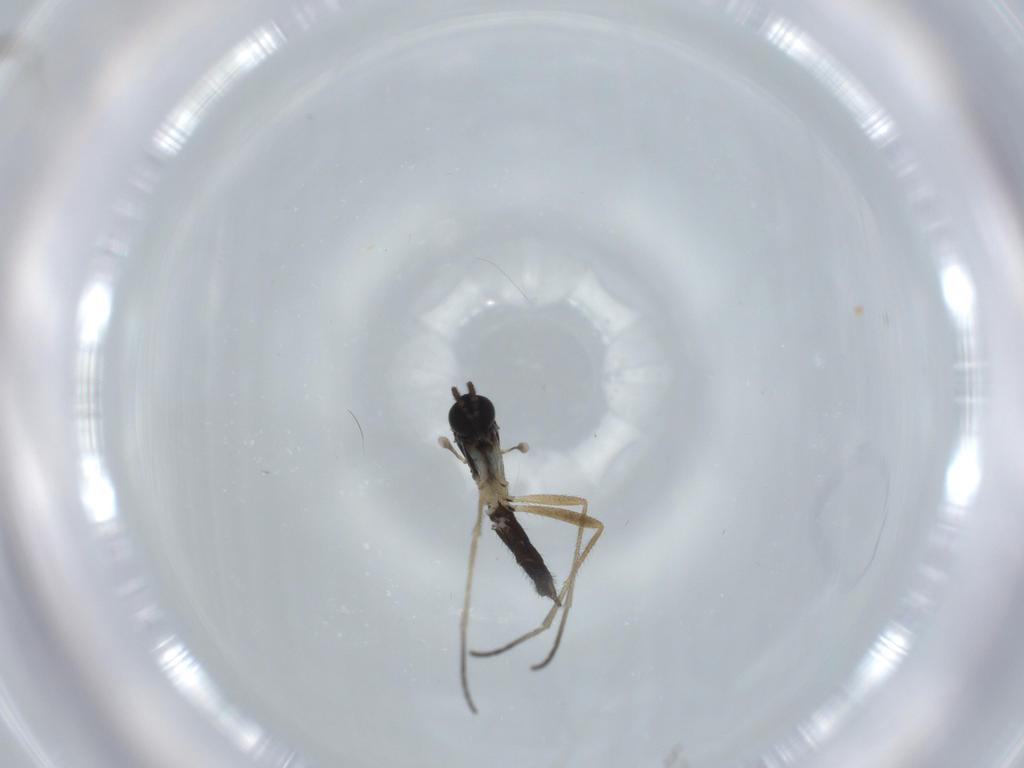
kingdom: Animalia
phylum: Arthropoda
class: Insecta
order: Diptera
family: Sciaridae
